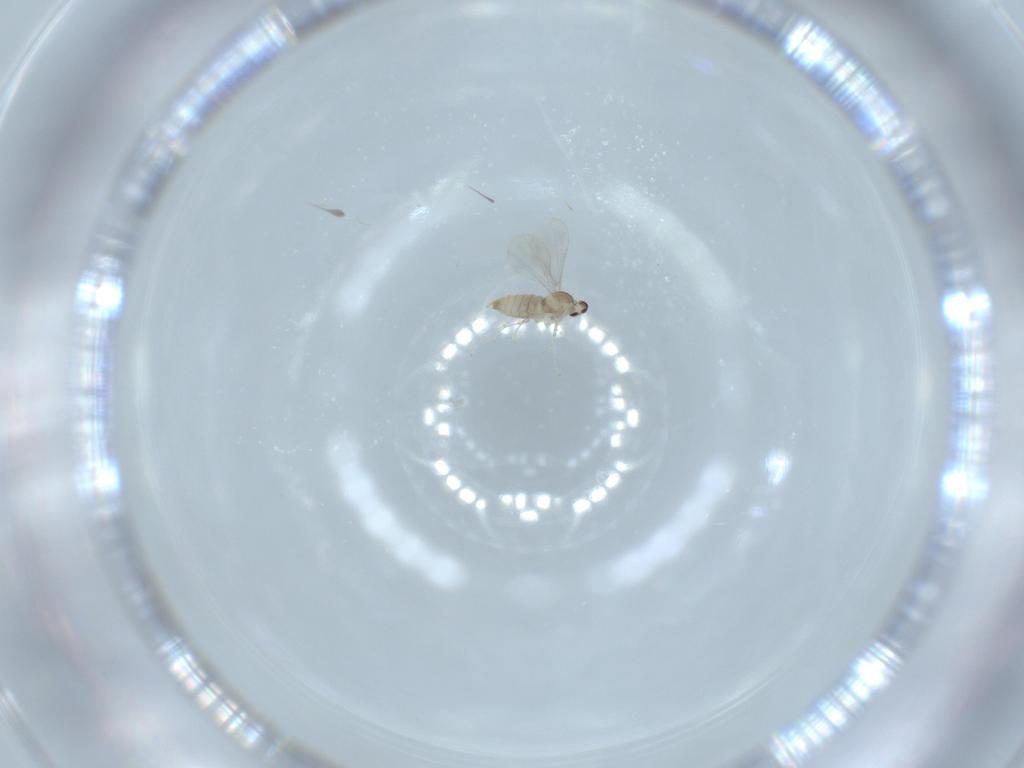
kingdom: Animalia
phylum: Arthropoda
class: Insecta
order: Diptera
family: Cecidomyiidae
